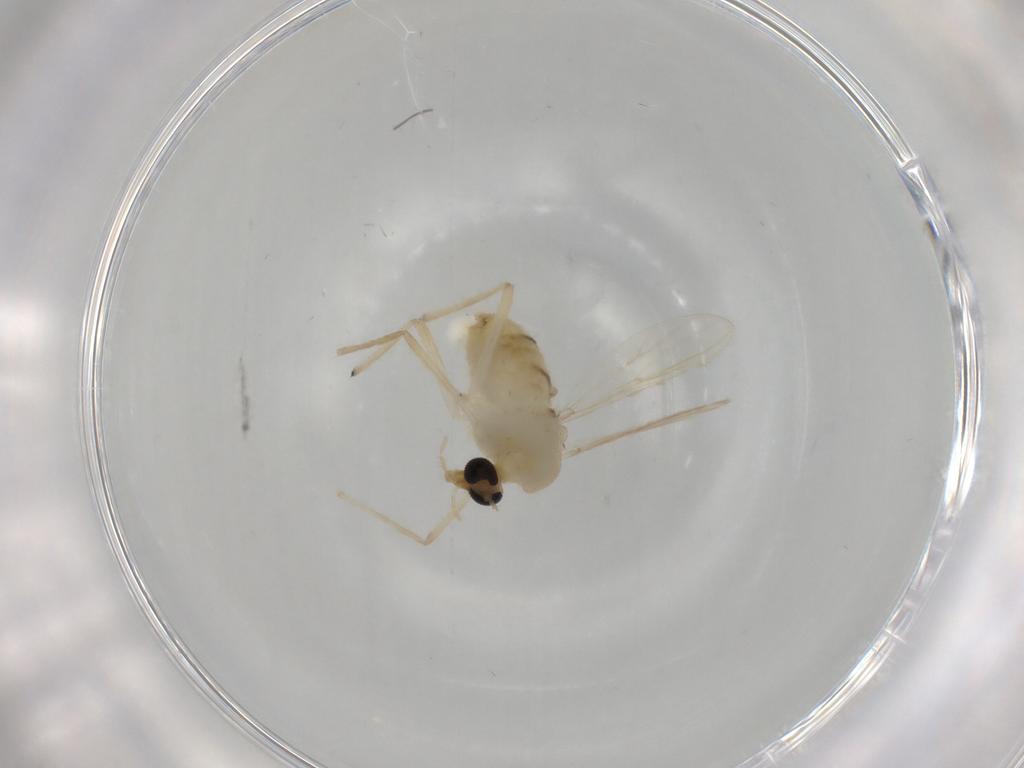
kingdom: Animalia
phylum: Arthropoda
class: Insecta
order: Diptera
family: Chironomidae
